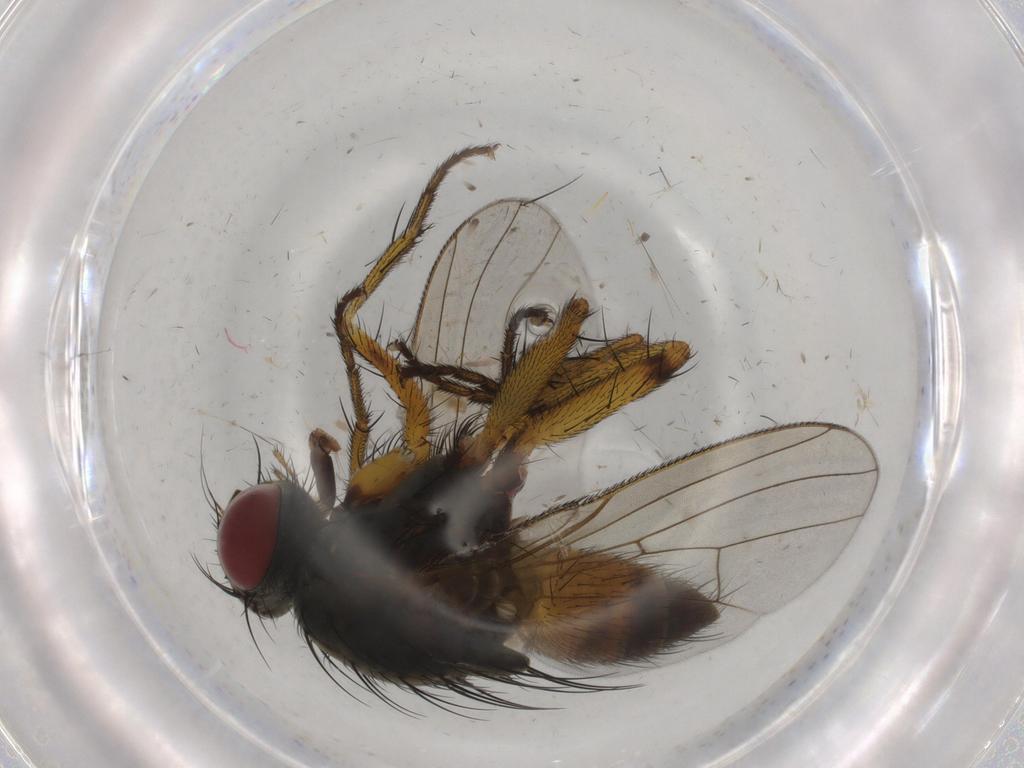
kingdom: Animalia
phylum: Arthropoda
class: Insecta
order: Diptera
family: Muscidae
